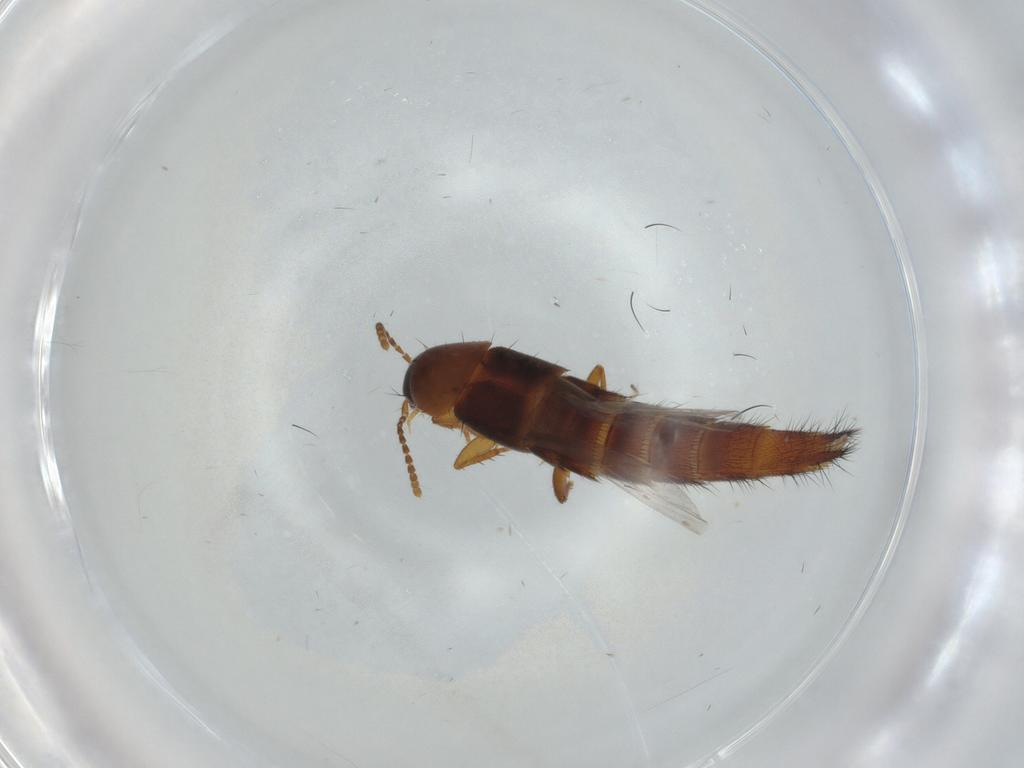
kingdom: Animalia
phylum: Arthropoda
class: Insecta
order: Coleoptera
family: Staphylinidae
